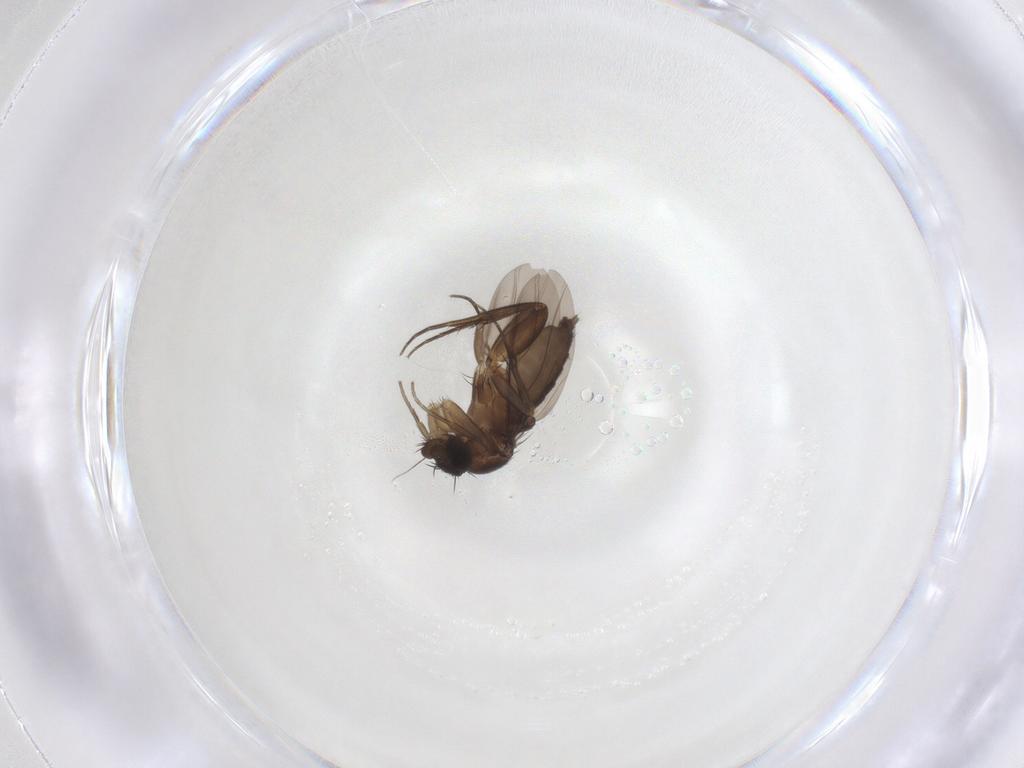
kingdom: Animalia
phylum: Arthropoda
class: Insecta
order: Diptera
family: Phoridae
